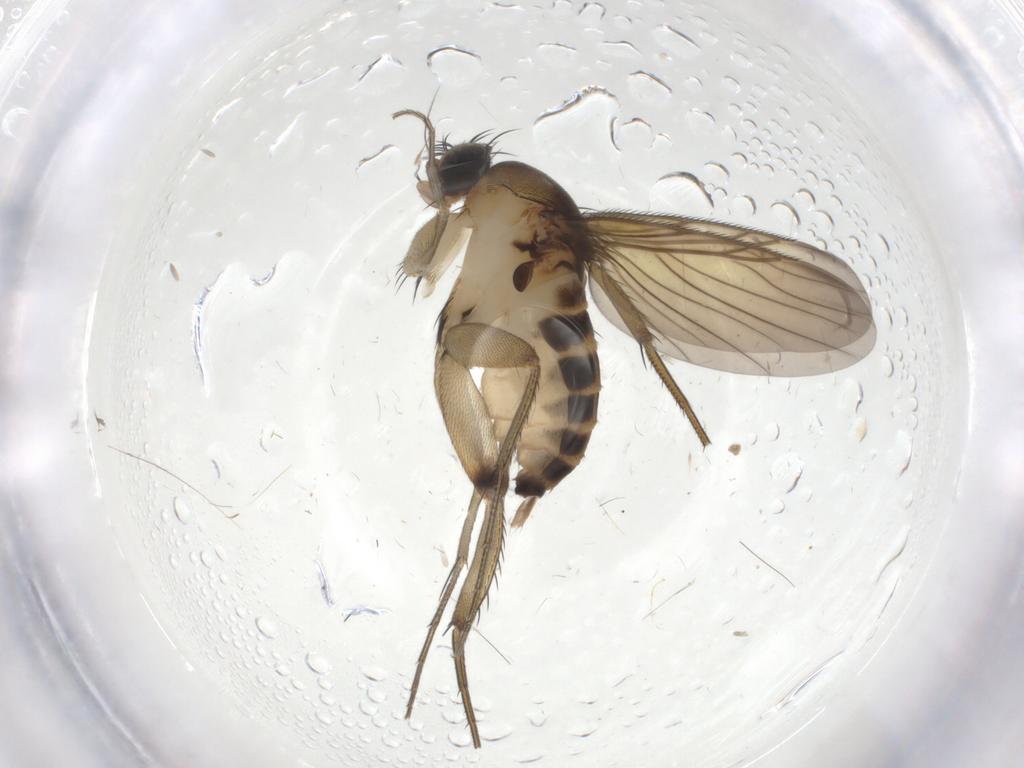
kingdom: Animalia
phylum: Arthropoda
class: Insecta
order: Diptera
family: Phoridae
